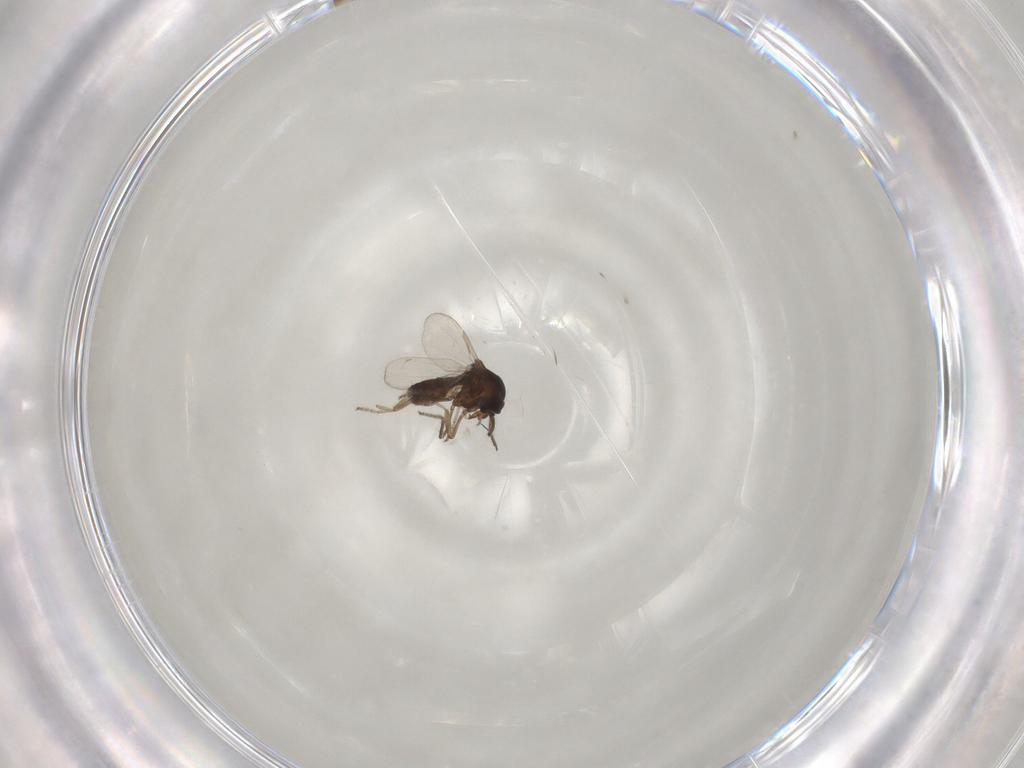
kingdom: Animalia
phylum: Arthropoda
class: Insecta
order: Diptera
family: Ceratopogonidae
